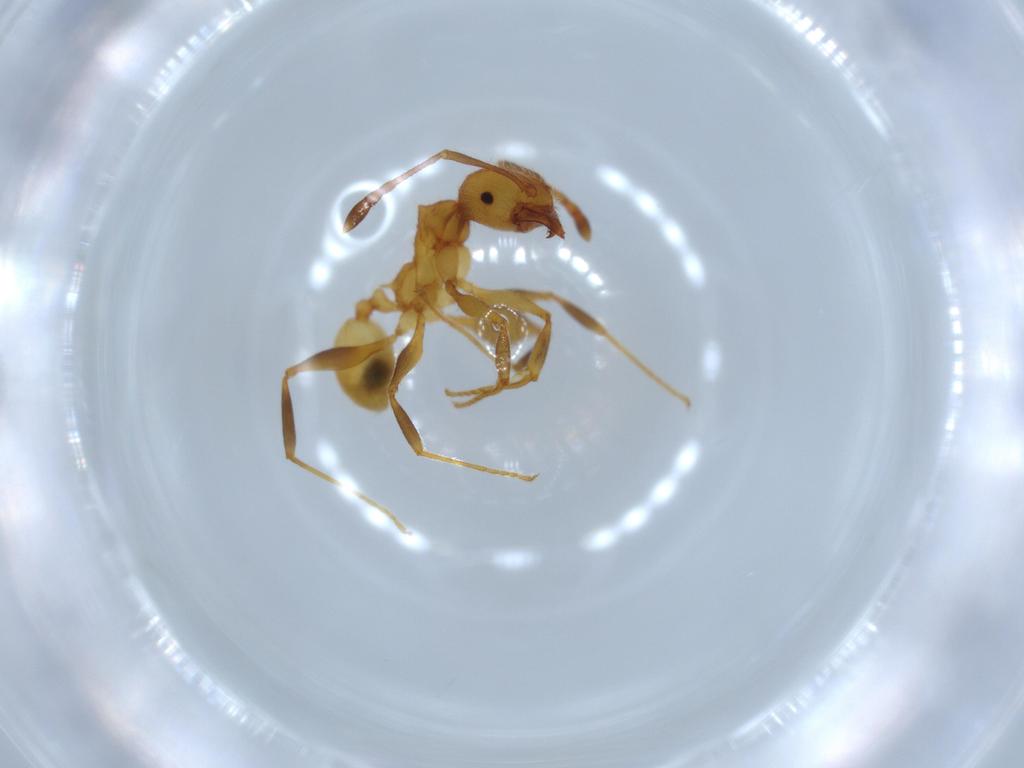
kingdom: Animalia
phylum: Arthropoda
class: Insecta
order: Hymenoptera
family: Formicidae
